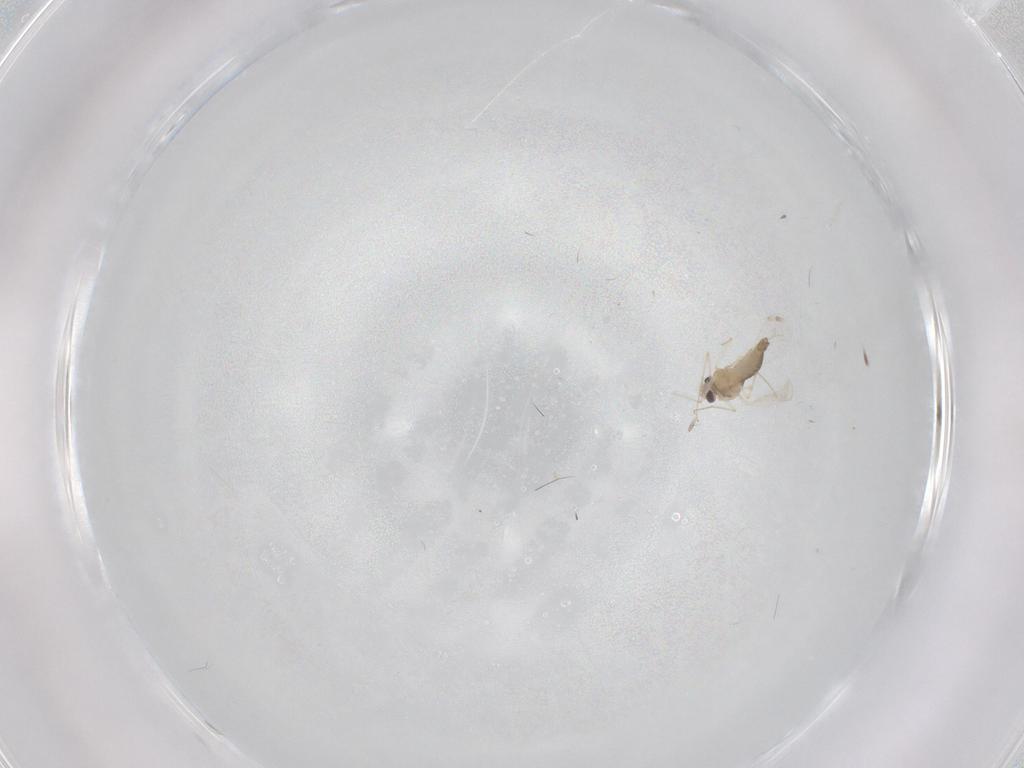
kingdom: Animalia
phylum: Arthropoda
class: Insecta
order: Diptera
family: Chironomidae
